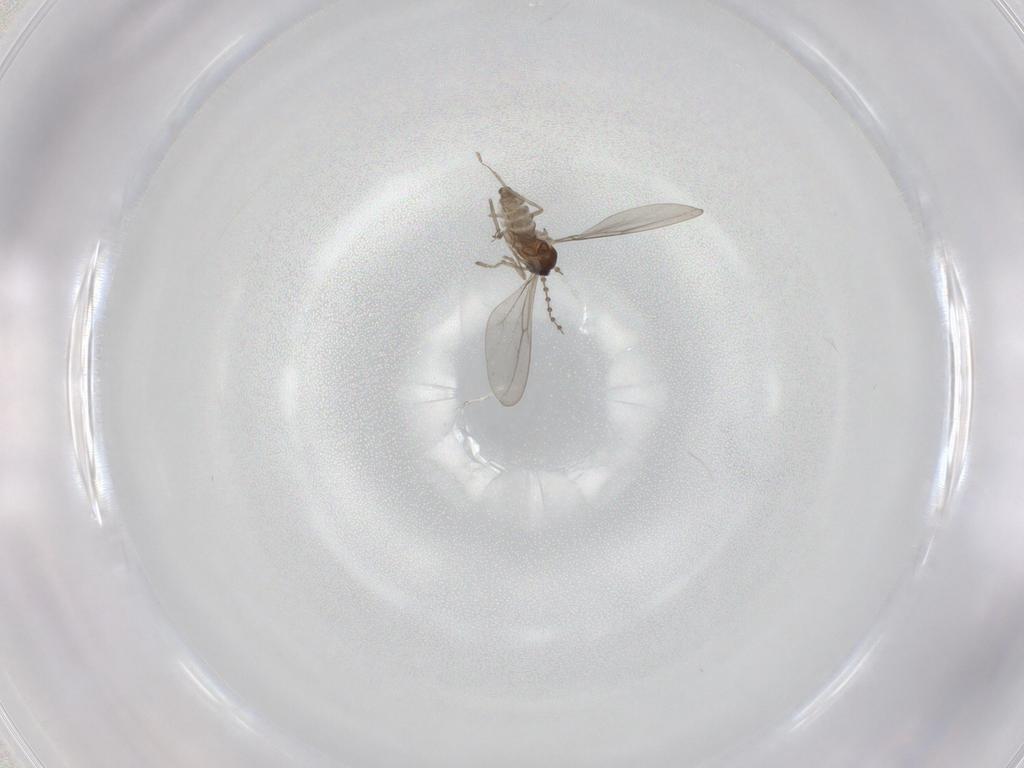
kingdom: Animalia
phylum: Arthropoda
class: Insecta
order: Diptera
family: Cecidomyiidae
